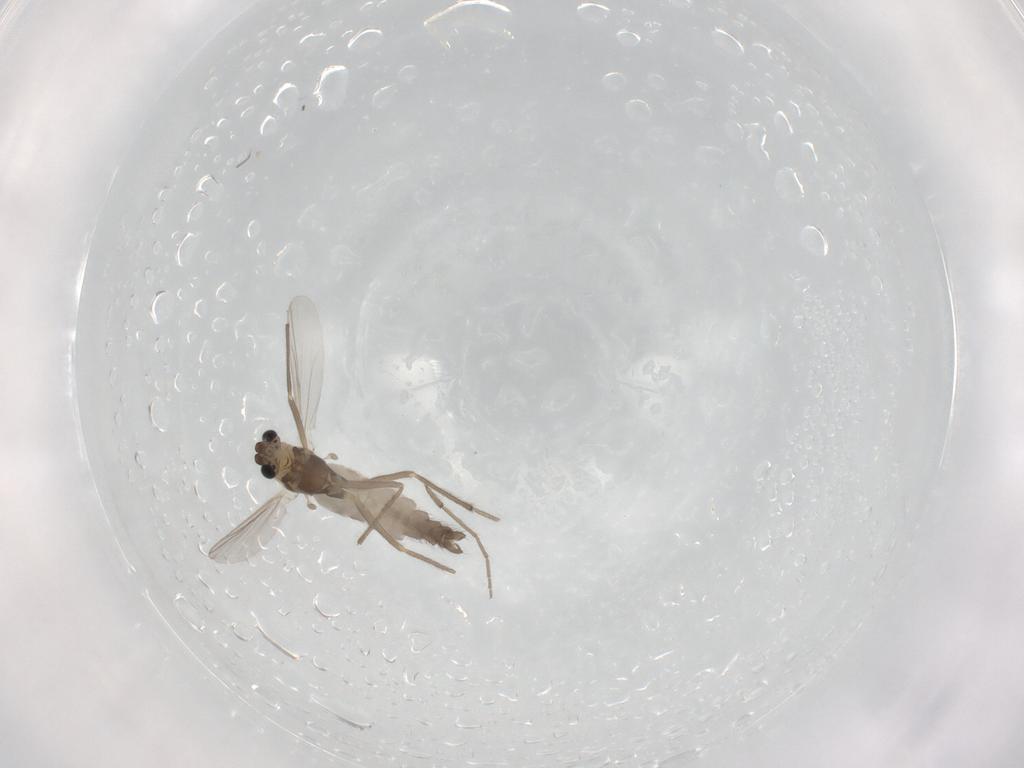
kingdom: Animalia
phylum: Arthropoda
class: Insecta
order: Diptera
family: Chironomidae
